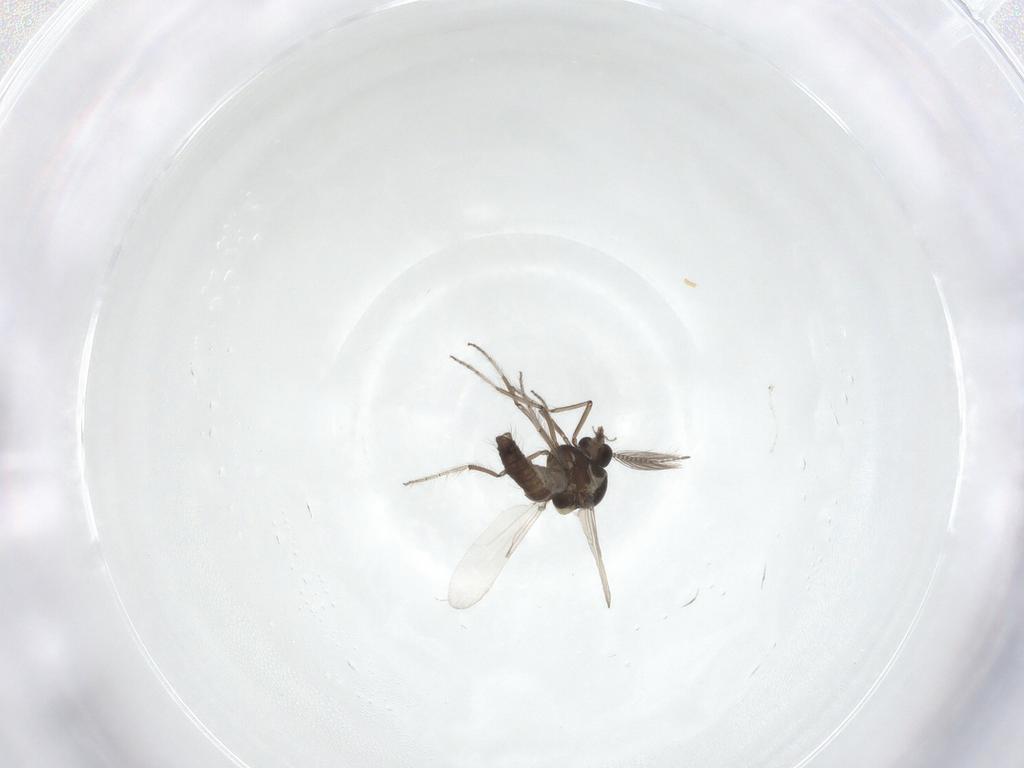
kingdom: Animalia
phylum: Arthropoda
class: Insecta
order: Diptera
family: Ceratopogonidae
